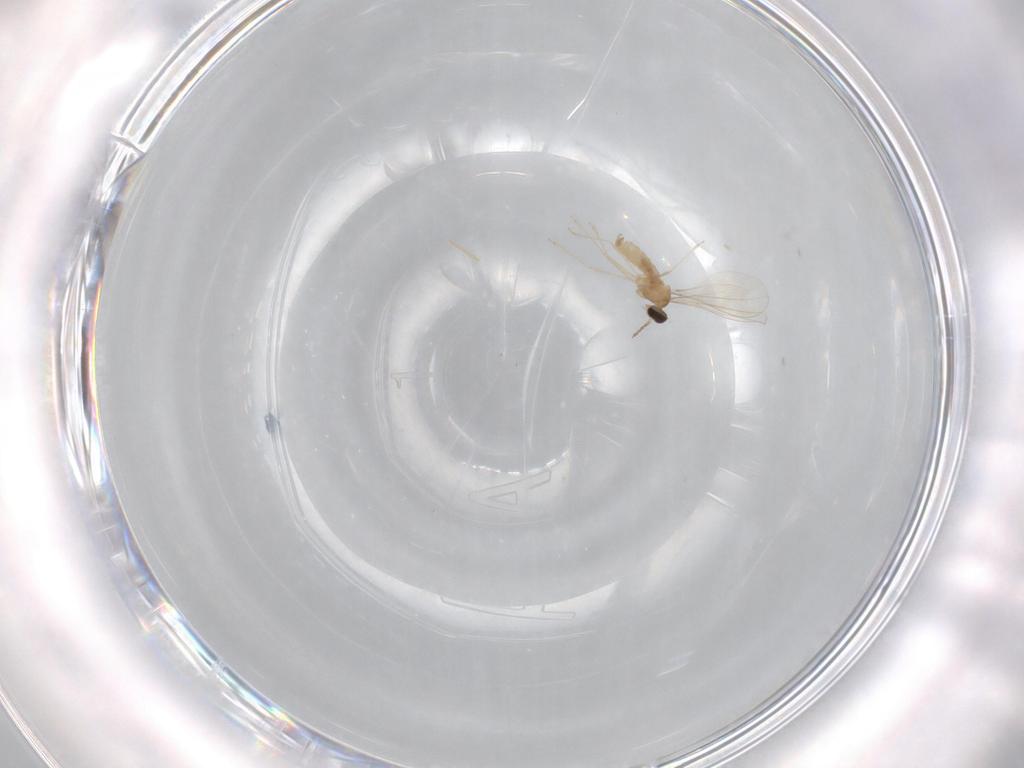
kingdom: Animalia
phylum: Arthropoda
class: Insecta
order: Diptera
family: Cecidomyiidae
